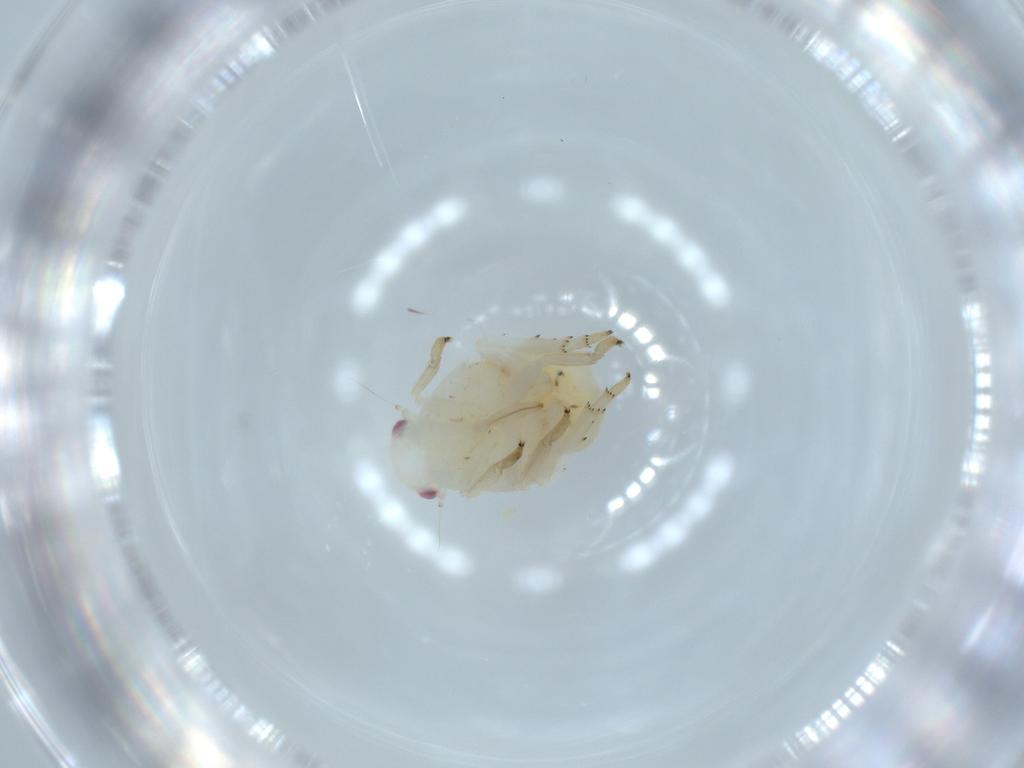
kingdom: Animalia
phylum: Arthropoda
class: Insecta
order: Hemiptera
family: Flatidae
